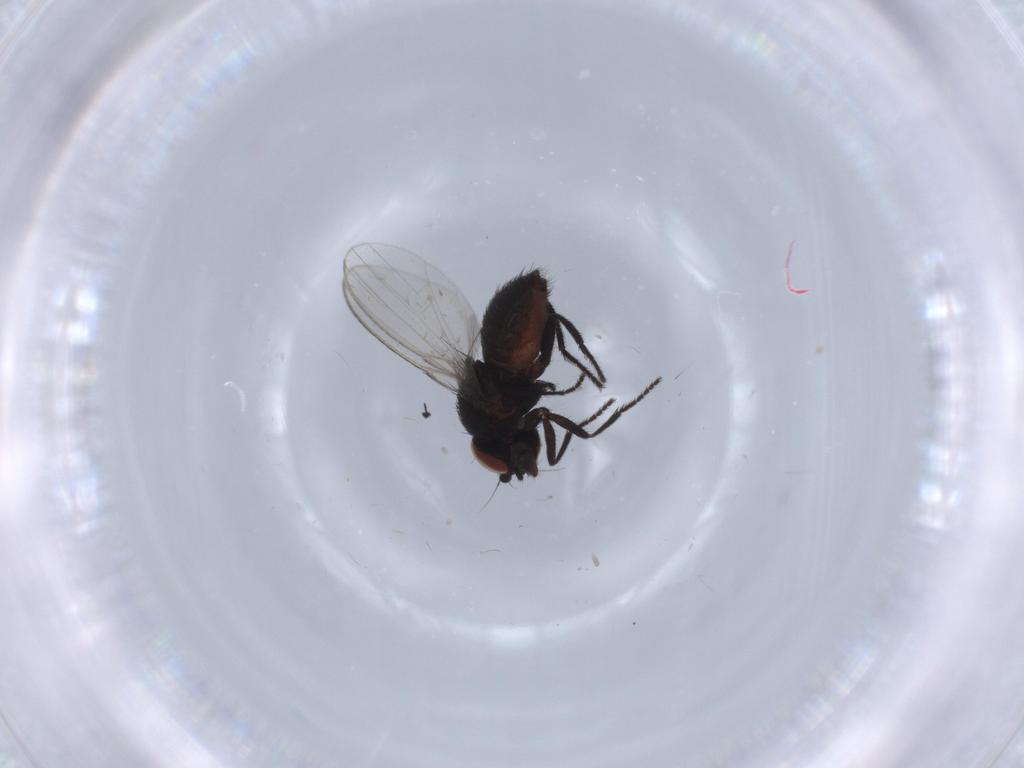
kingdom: Animalia
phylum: Arthropoda
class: Insecta
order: Diptera
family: Milichiidae
